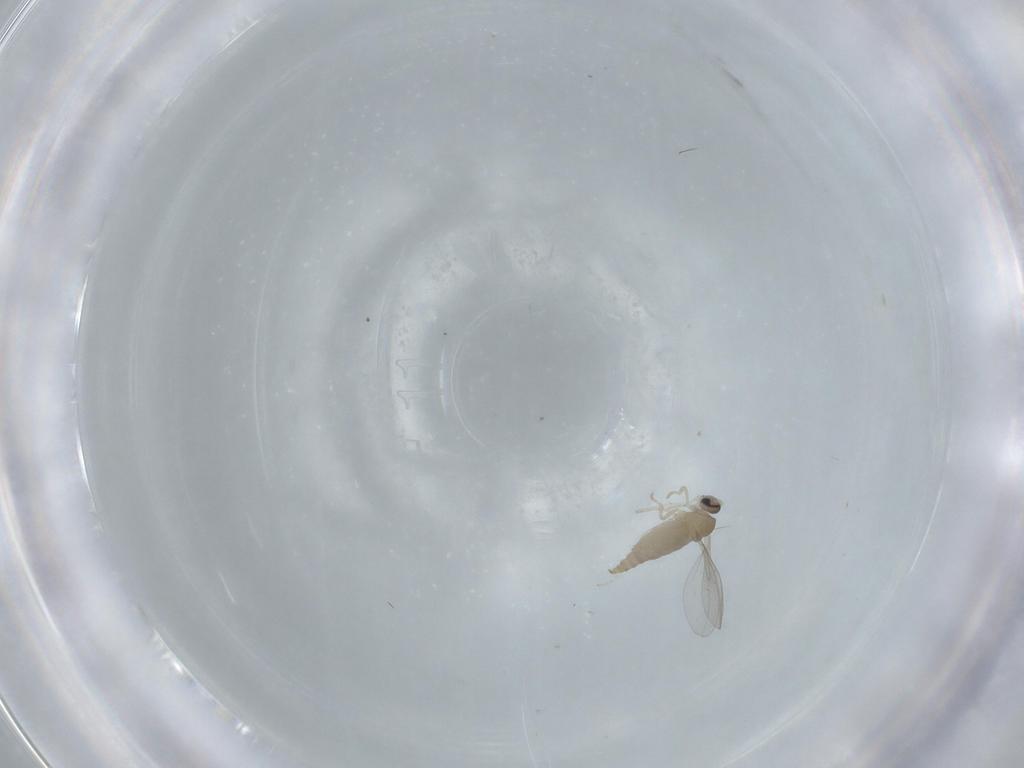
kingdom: Animalia
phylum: Arthropoda
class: Insecta
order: Diptera
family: Cecidomyiidae
